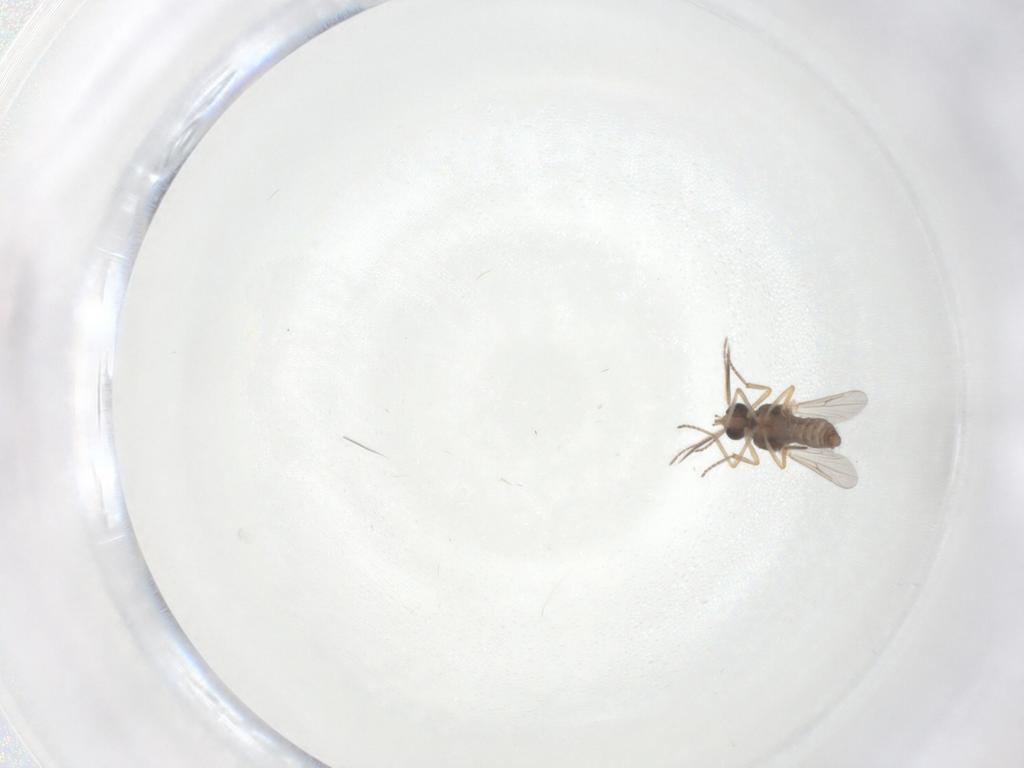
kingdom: Animalia
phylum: Arthropoda
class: Insecta
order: Diptera
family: Ceratopogonidae
